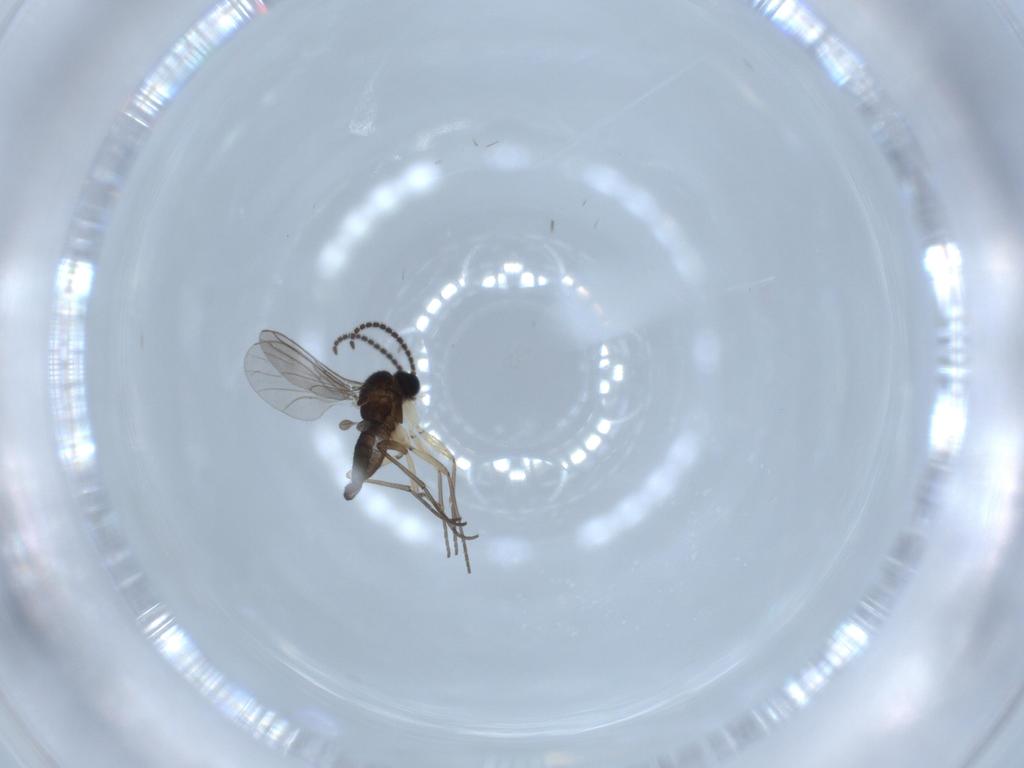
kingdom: Animalia
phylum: Arthropoda
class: Insecta
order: Diptera
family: Sciaridae
